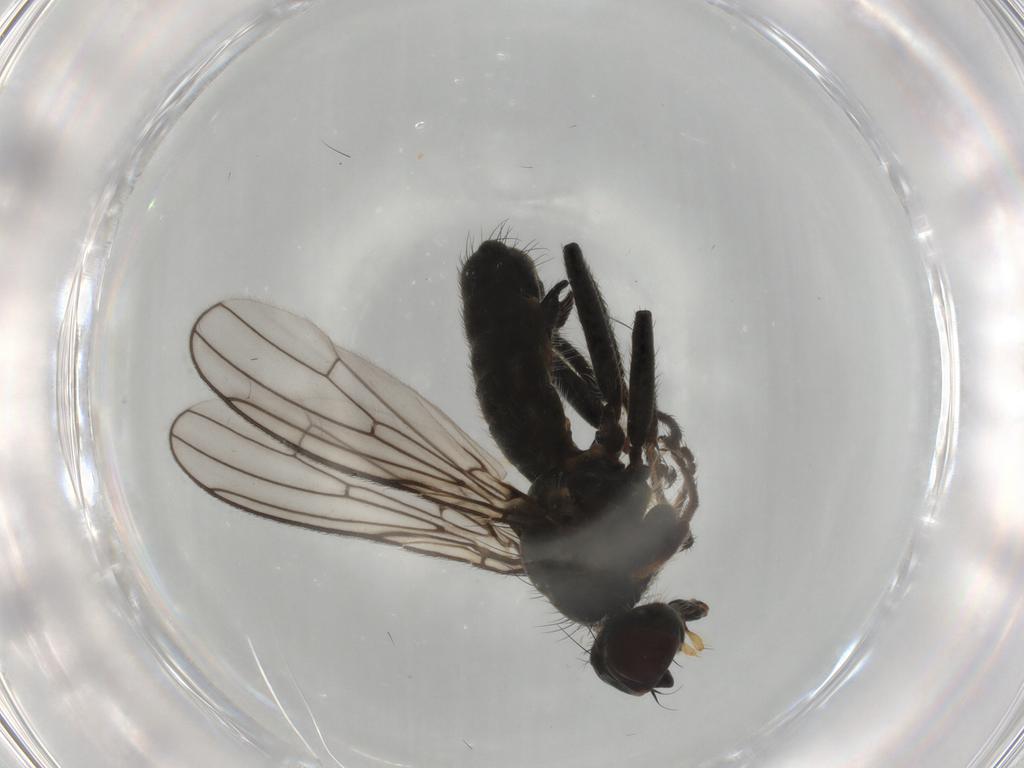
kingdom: Animalia
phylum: Arthropoda
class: Insecta
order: Diptera
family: Scathophagidae
